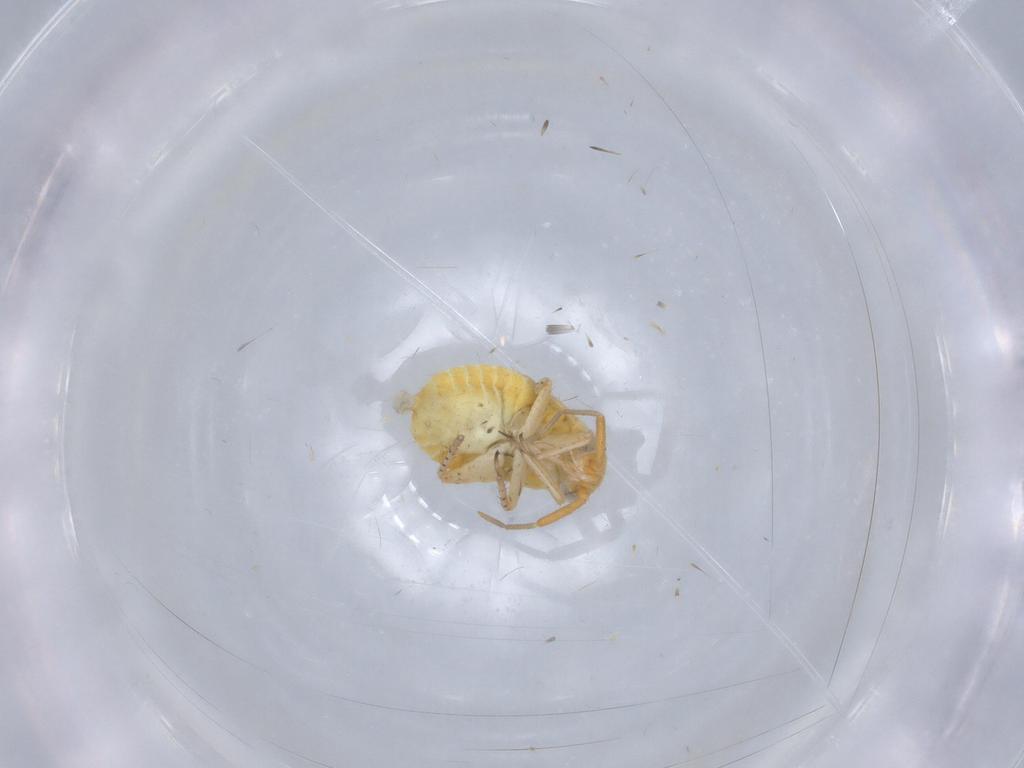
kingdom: Animalia
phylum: Arthropoda
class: Insecta
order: Hemiptera
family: Miridae
